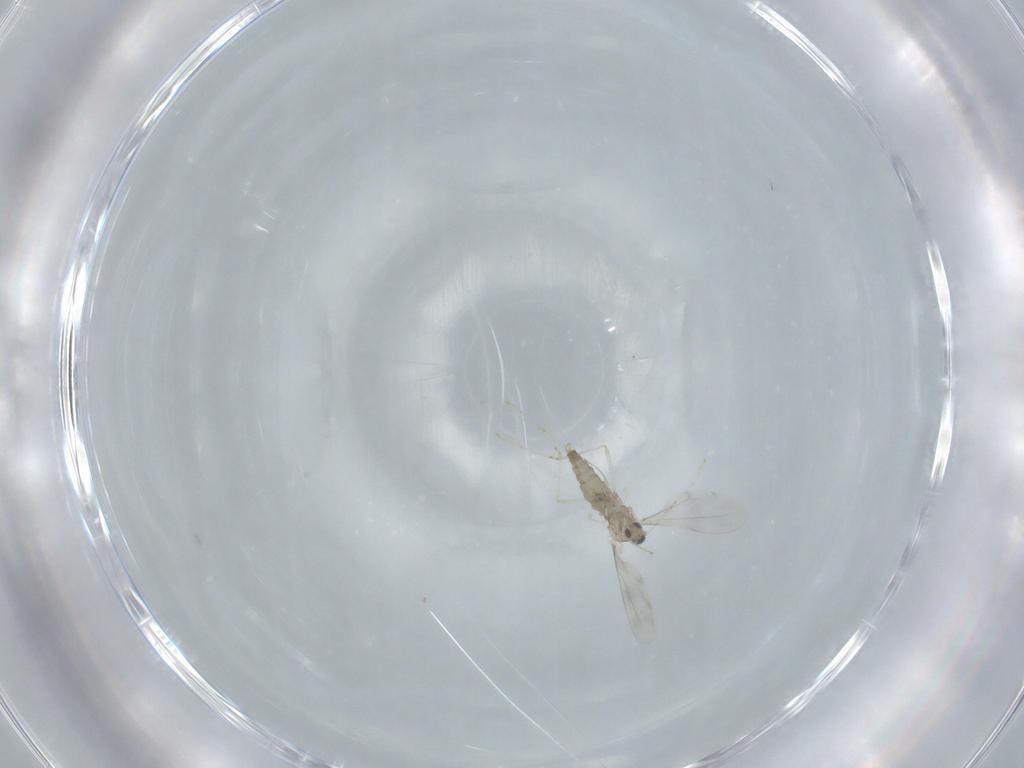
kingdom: Animalia
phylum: Arthropoda
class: Insecta
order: Diptera
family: Cecidomyiidae
